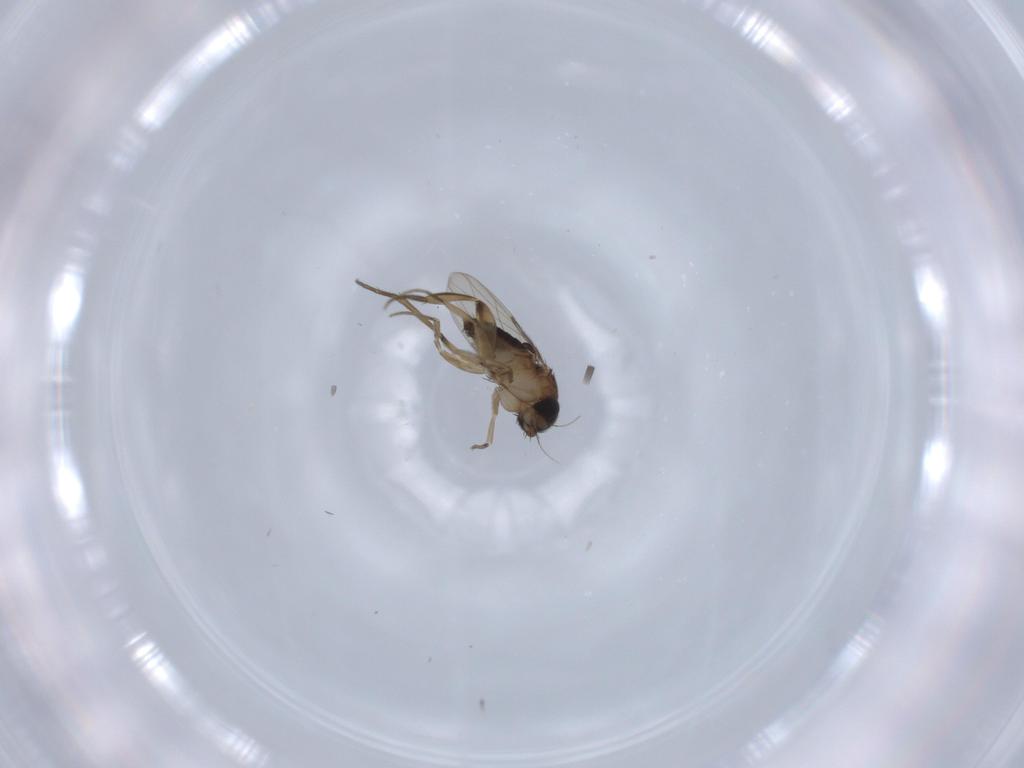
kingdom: Animalia
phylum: Arthropoda
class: Insecta
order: Diptera
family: Phoridae
